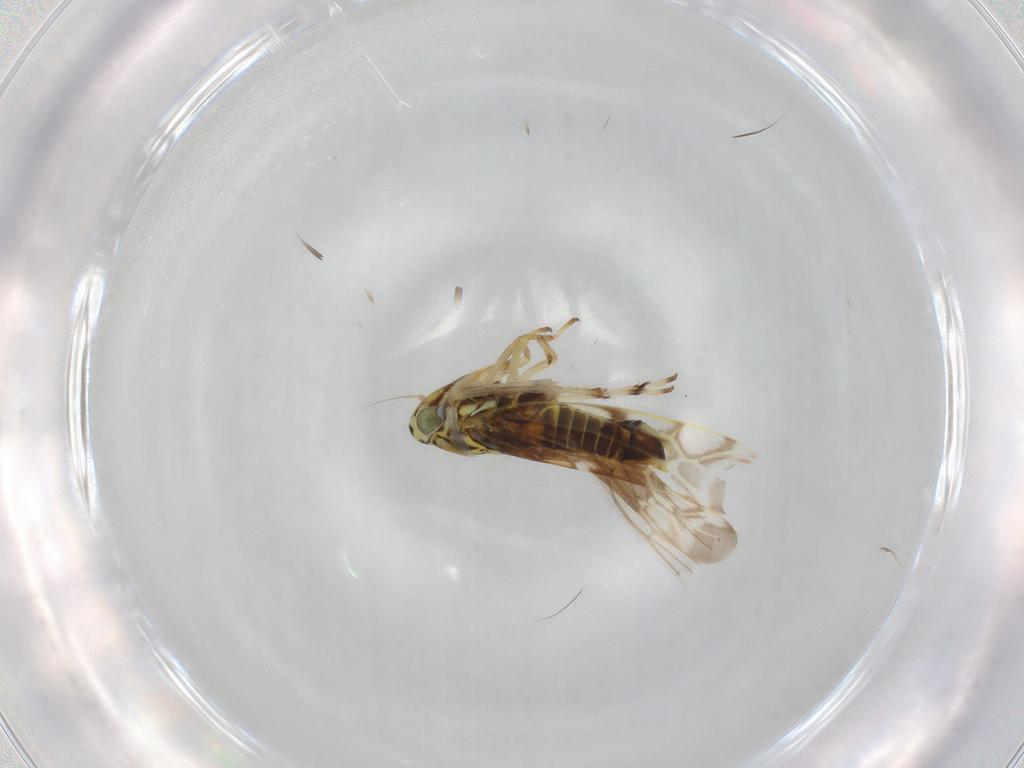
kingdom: Animalia
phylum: Arthropoda
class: Insecta
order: Hemiptera
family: Cicadellidae
